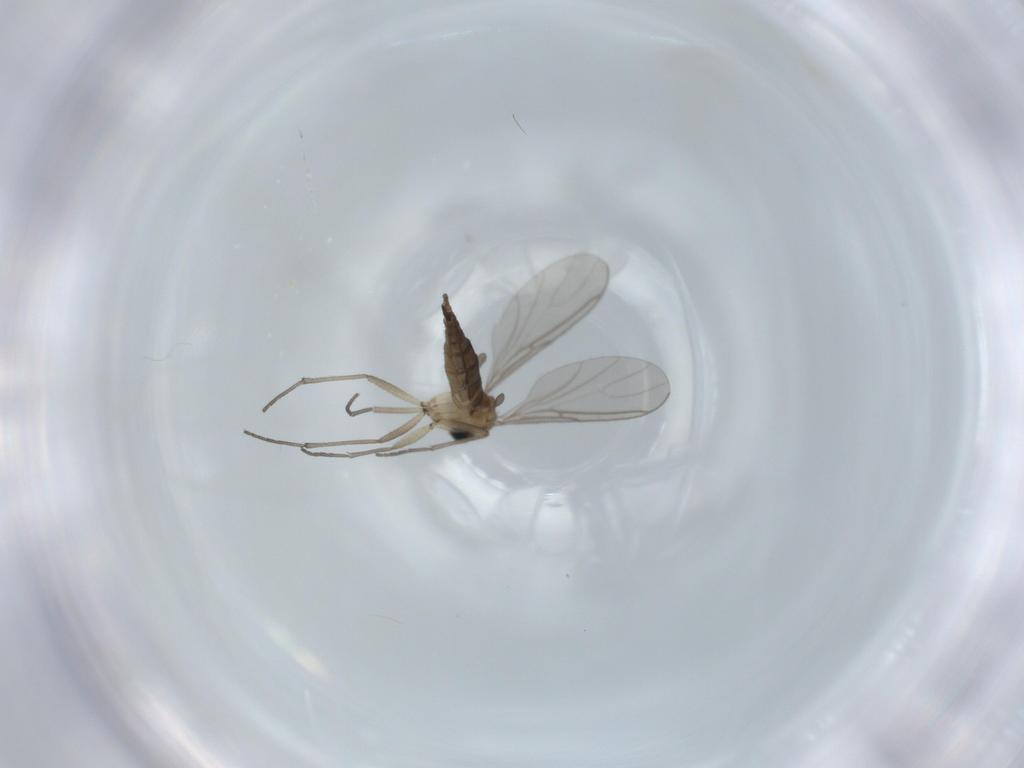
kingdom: Animalia
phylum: Arthropoda
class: Insecta
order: Diptera
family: Sciaridae
